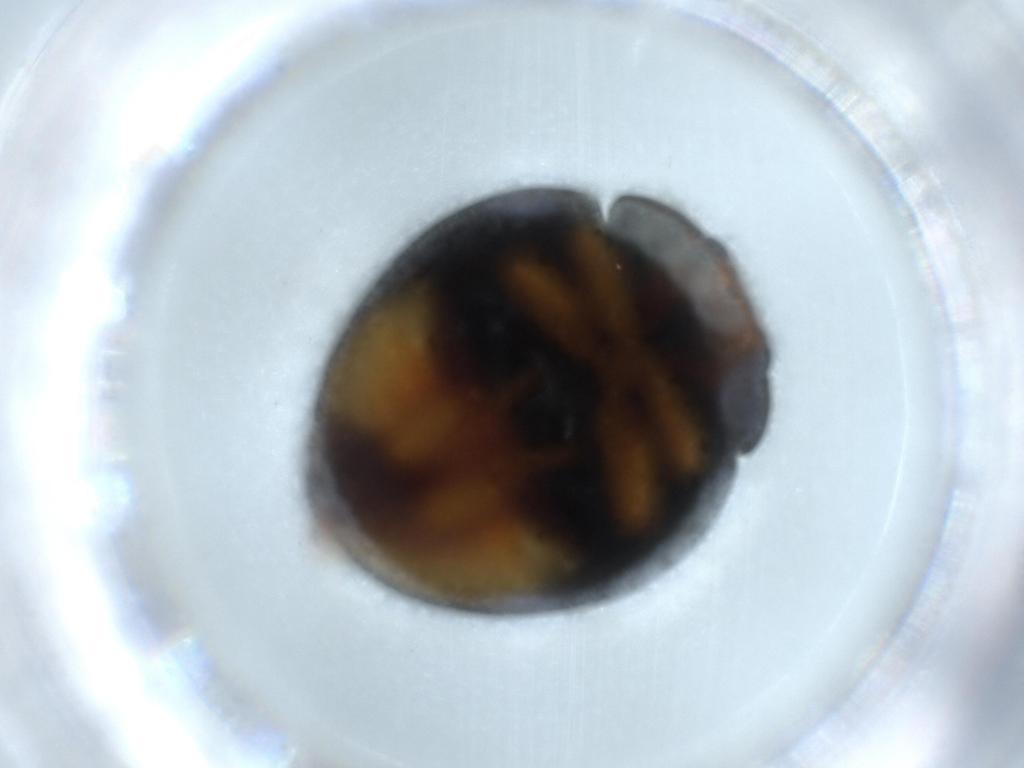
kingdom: Animalia
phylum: Arthropoda
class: Insecta
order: Coleoptera
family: Coccinellidae
